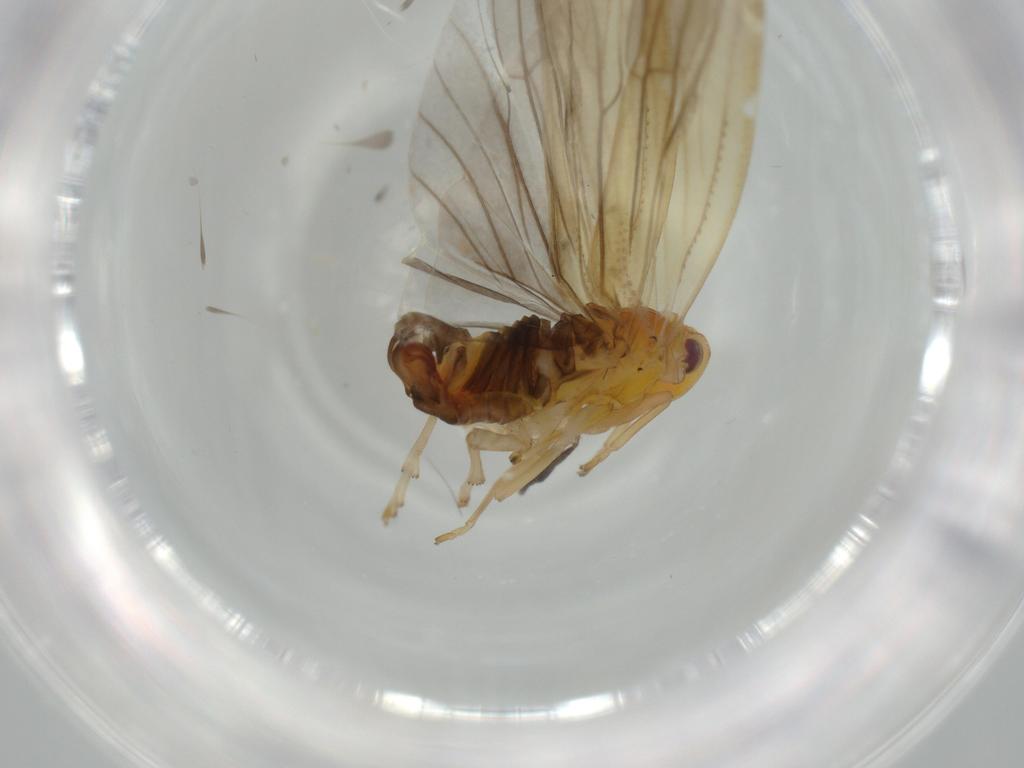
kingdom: Animalia
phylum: Arthropoda
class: Insecta
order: Hemiptera
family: Derbidae
